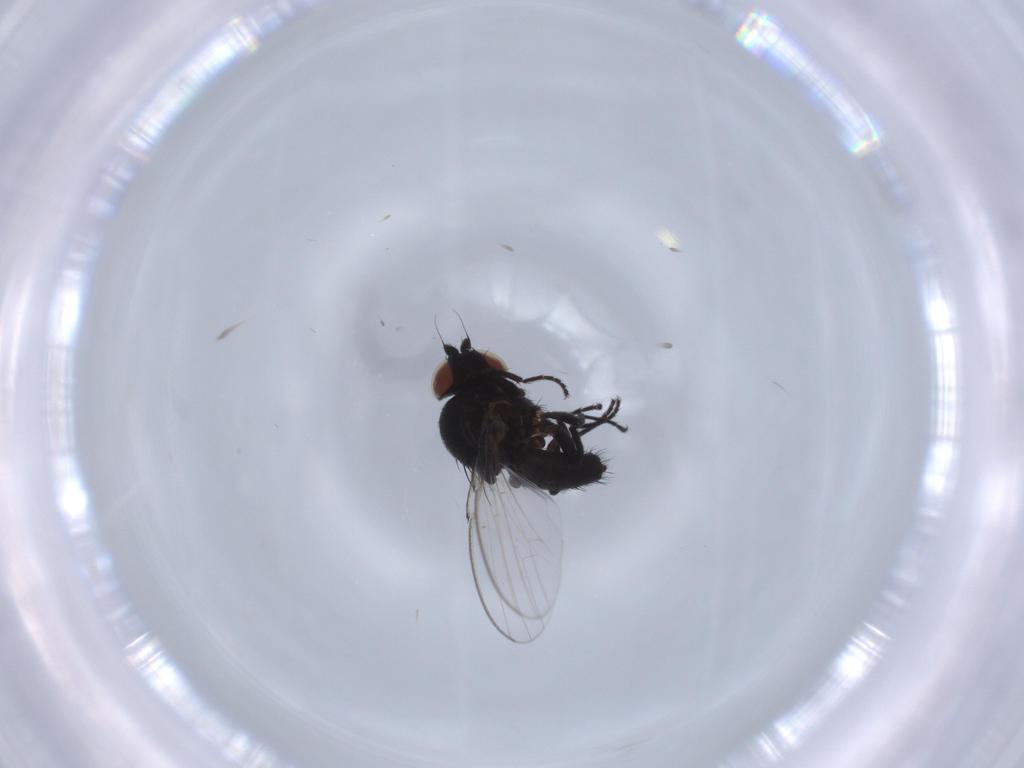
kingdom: Animalia
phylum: Arthropoda
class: Insecta
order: Diptera
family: Milichiidae
